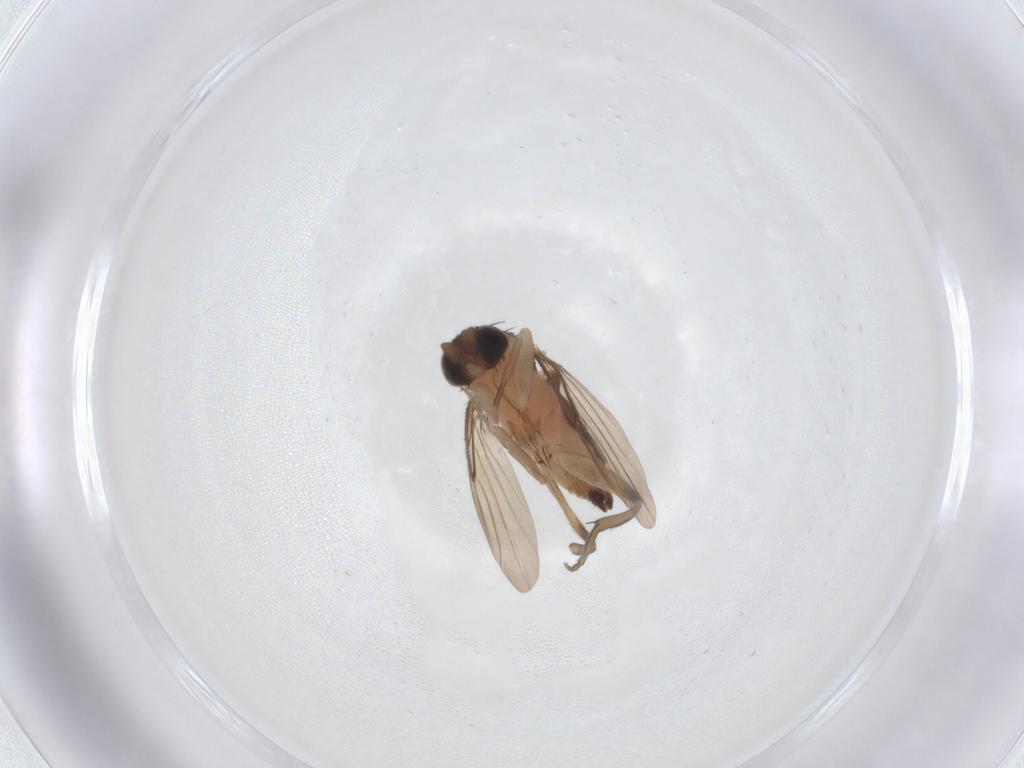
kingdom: Animalia
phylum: Arthropoda
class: Insecta
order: Diptera
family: Phoridae
